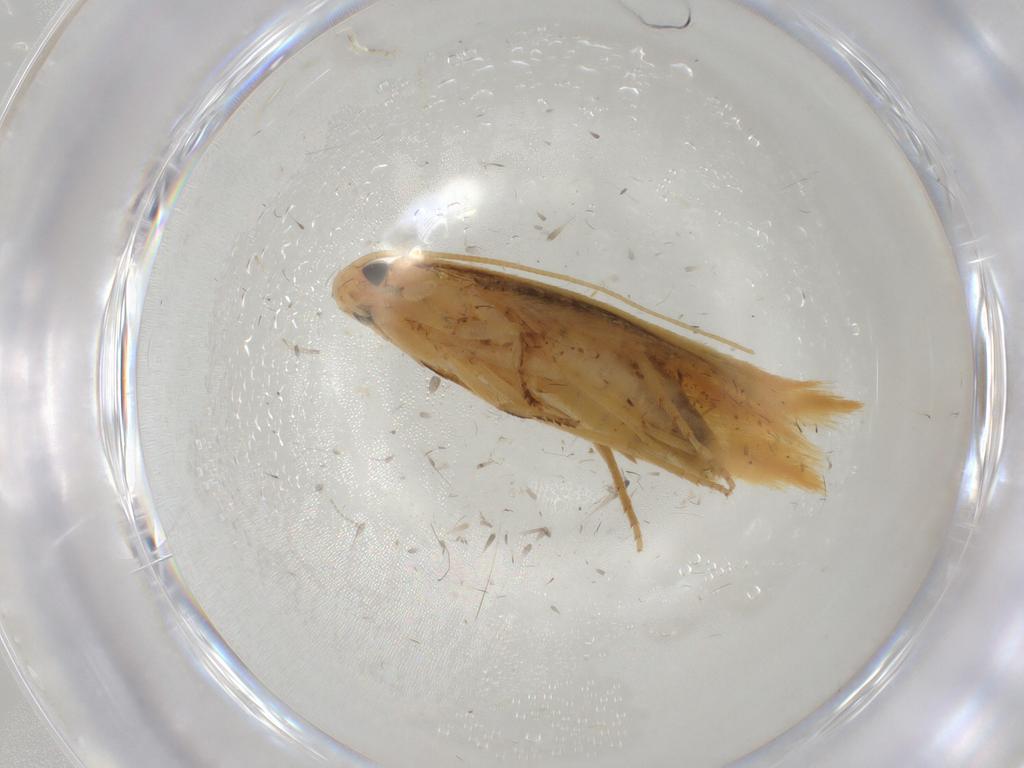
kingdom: Animalia
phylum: Arthropoda
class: Insecta
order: Lepidoptera
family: Tineidae
